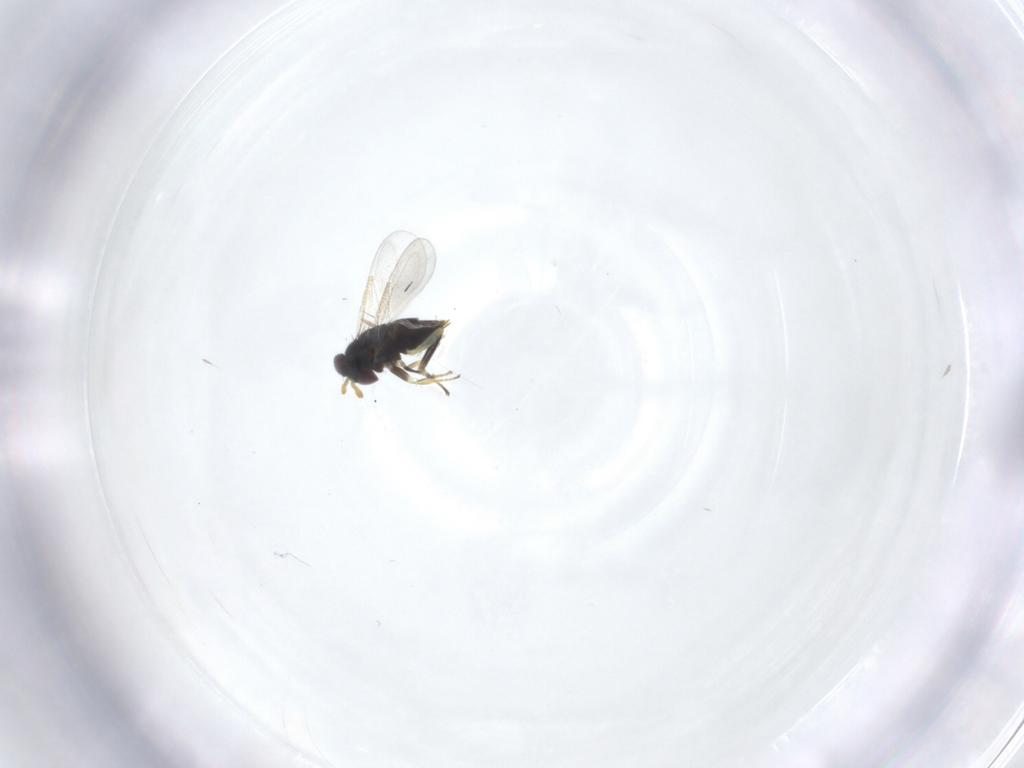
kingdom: Animalia
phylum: Arthropoda
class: Insecta
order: Hymenoptera
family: Aphelinidae
